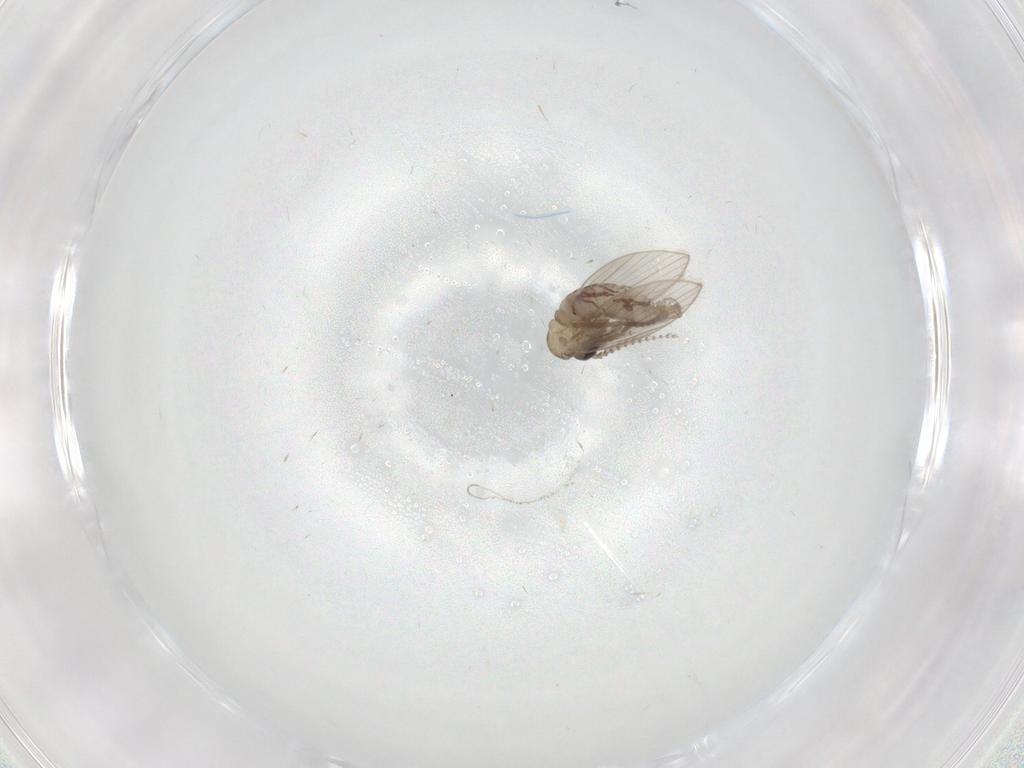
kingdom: Animalia
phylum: Arthropoda
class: Insecta
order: Diptera
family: Psychodidae
